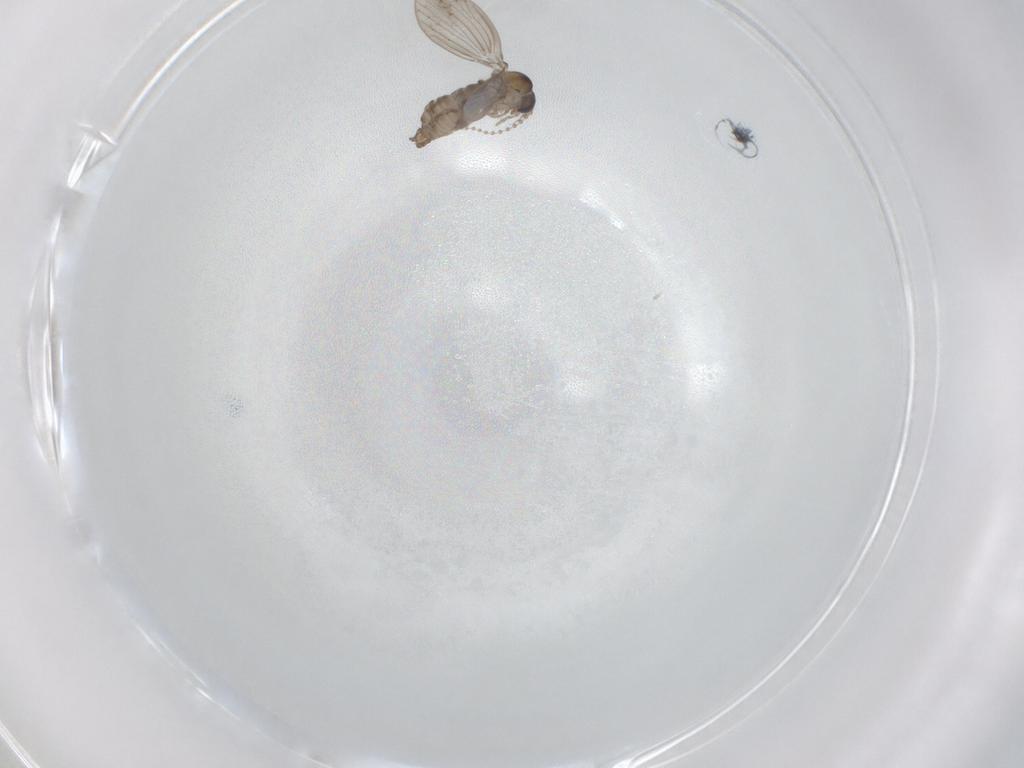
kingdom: Animalia
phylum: Arthropoda
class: Insecta
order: Diptera
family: Psychodidae
